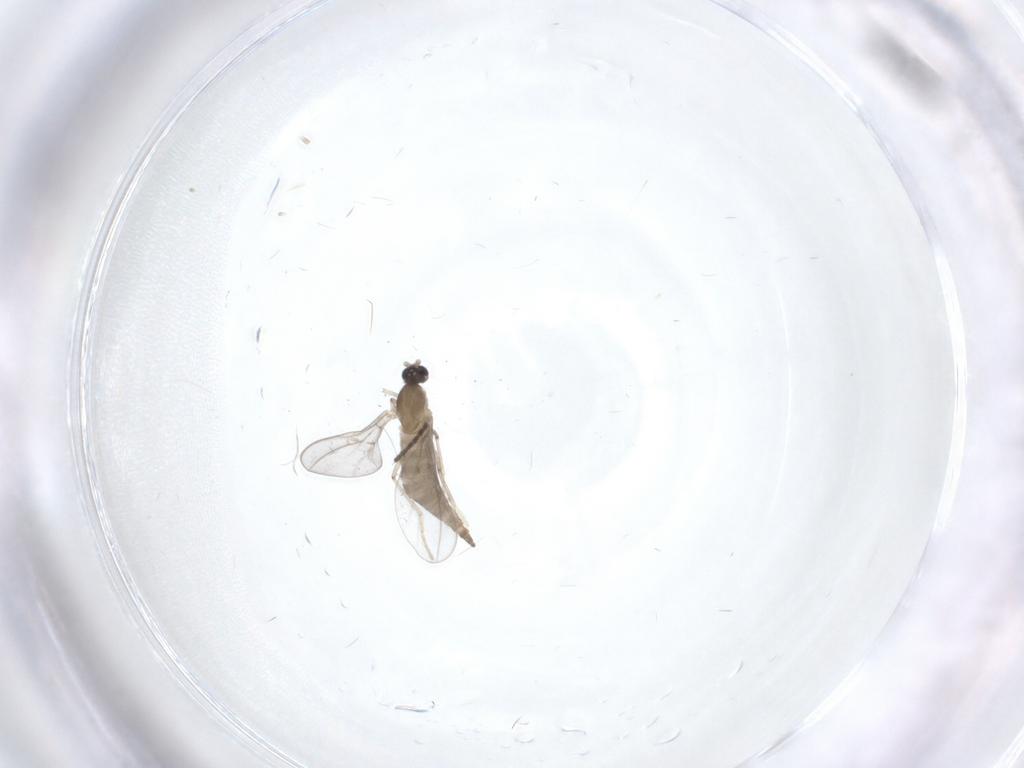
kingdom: Animalia
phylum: Arthropoda
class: Insecta
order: Diptera
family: Cecidomyiidae
